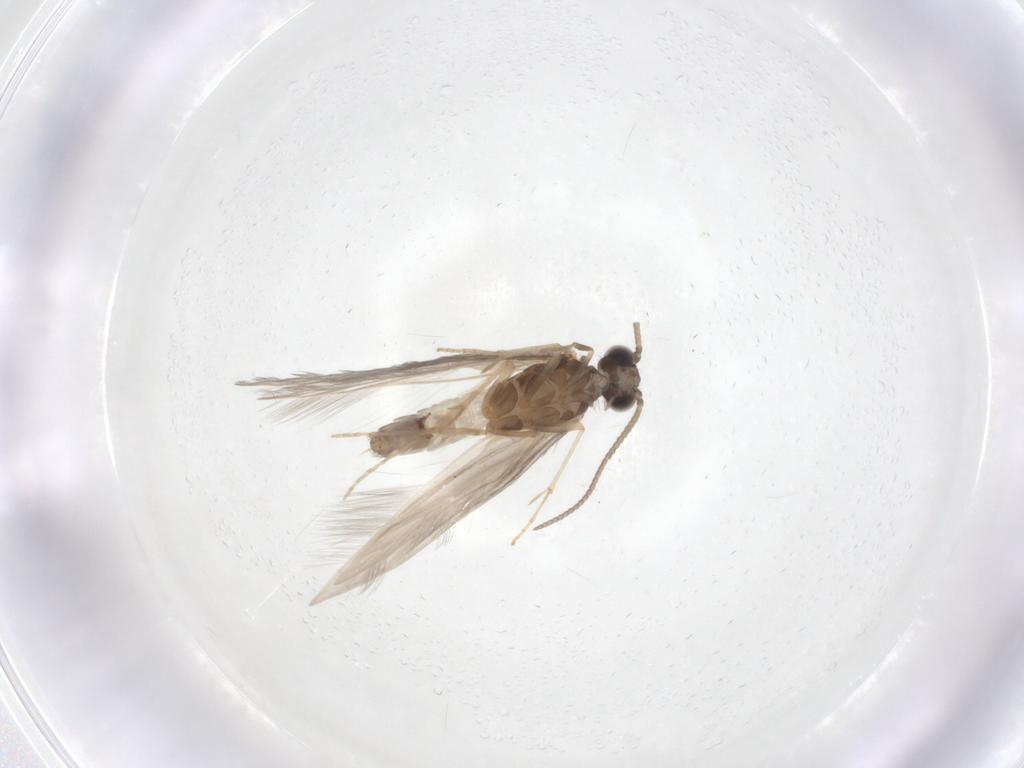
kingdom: Animalia
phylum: Arthropoda
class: Insecta
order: Trichoptera
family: Hydroptilidae
